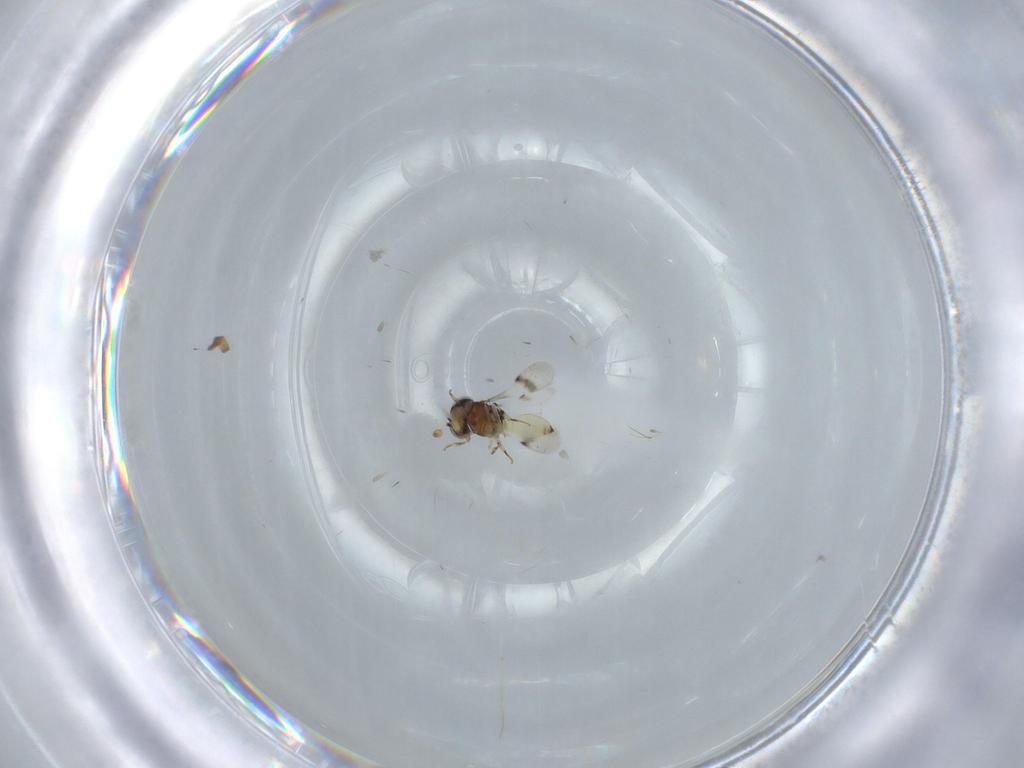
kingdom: Animalia
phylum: Arthropoda
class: Insecta
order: Hymenoptera
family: Scelionidae
